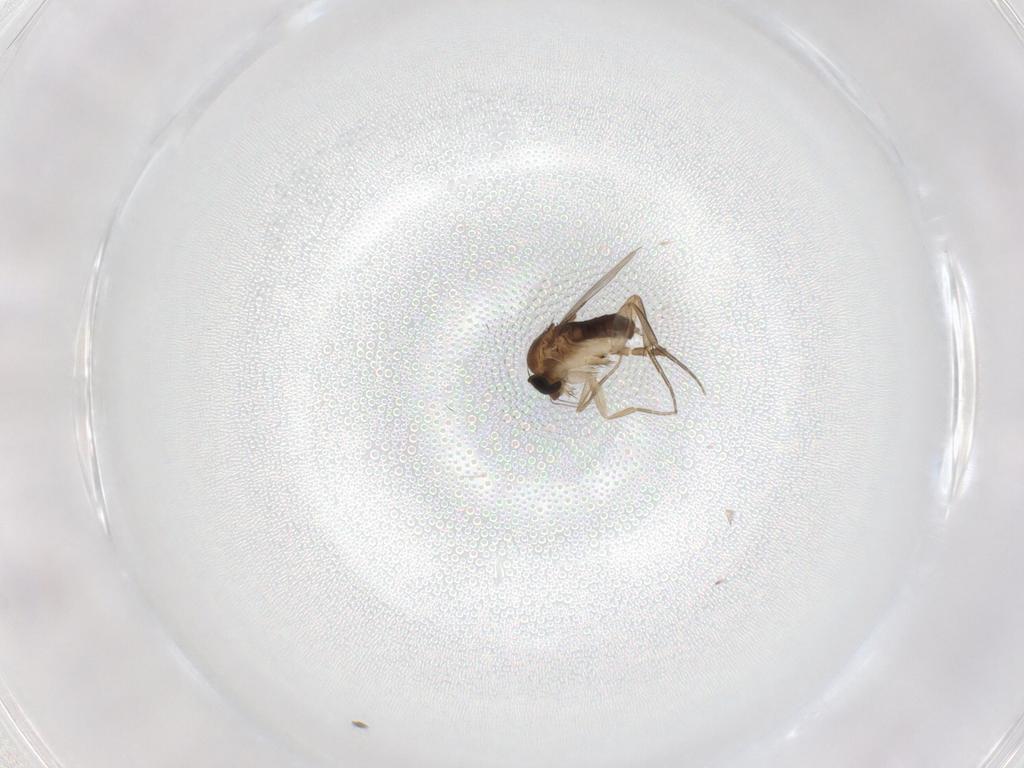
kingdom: Animalia
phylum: Arthropoda
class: Insecta
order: Diptera
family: Phoridae
